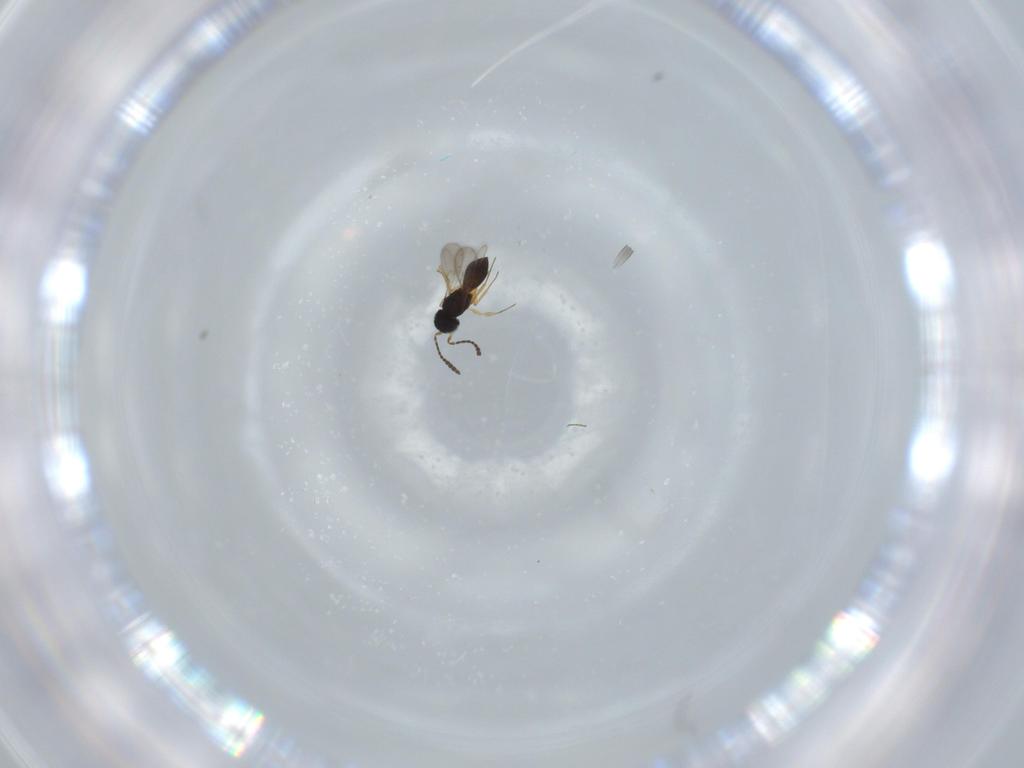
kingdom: Animalia
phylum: Arthropoda
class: Insecta
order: Hymenoptera
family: Scelionidae
